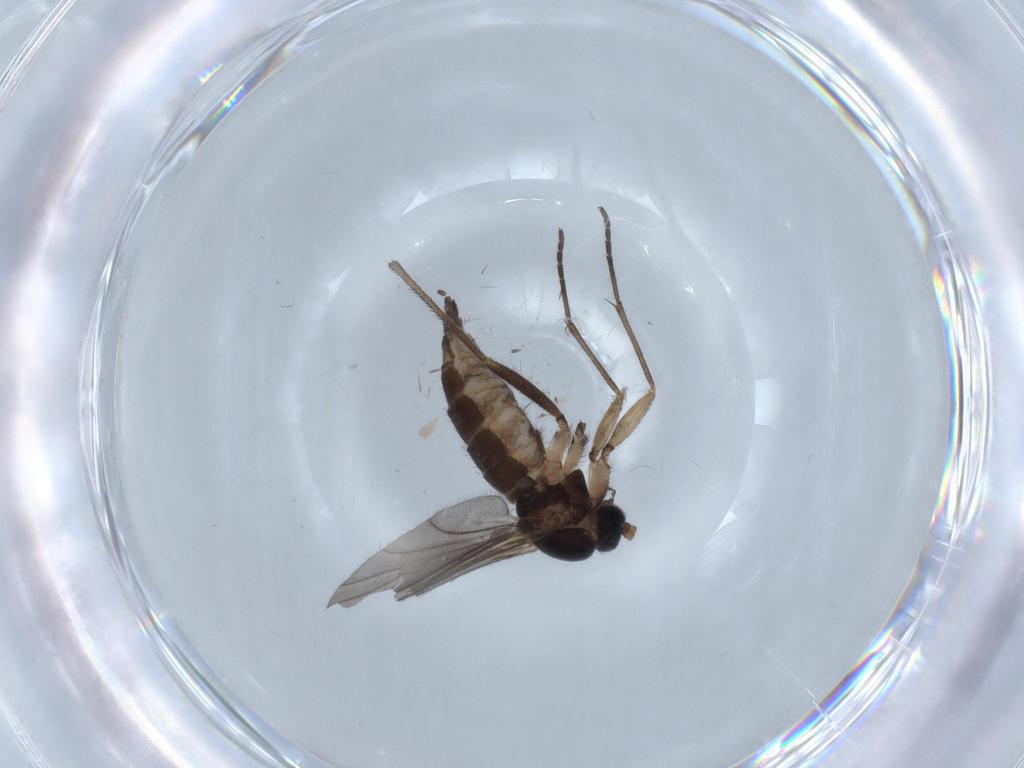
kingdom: Animalia
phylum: Arthropoda
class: Insecta
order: Diptera
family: Sciaridae
